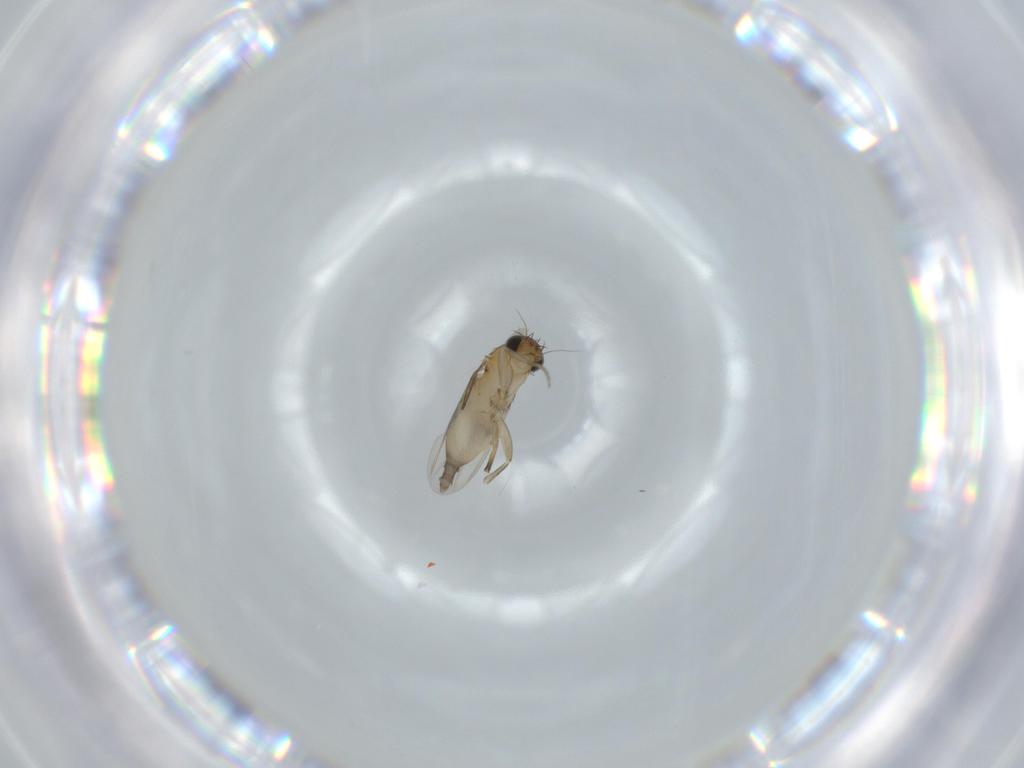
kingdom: Animalia
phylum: Arthropoda
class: Insecta
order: Diptera
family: Phoridae
